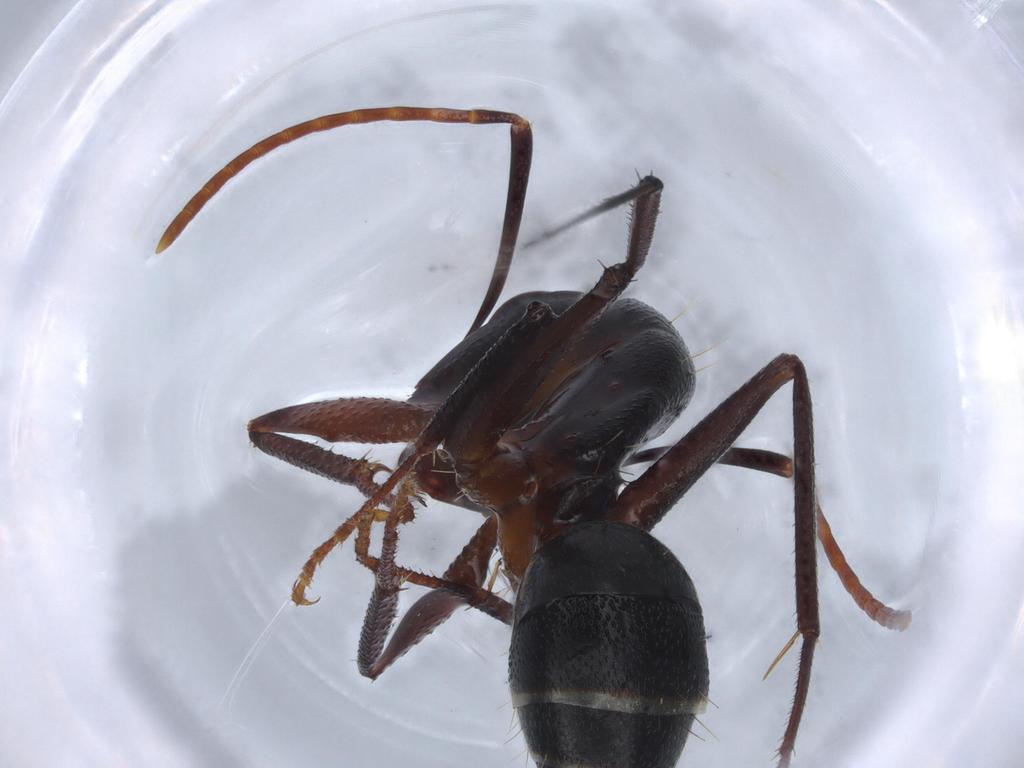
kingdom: Animalia
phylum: Arthropoda
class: Insecta
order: Hymenoptera
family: Formicidae
